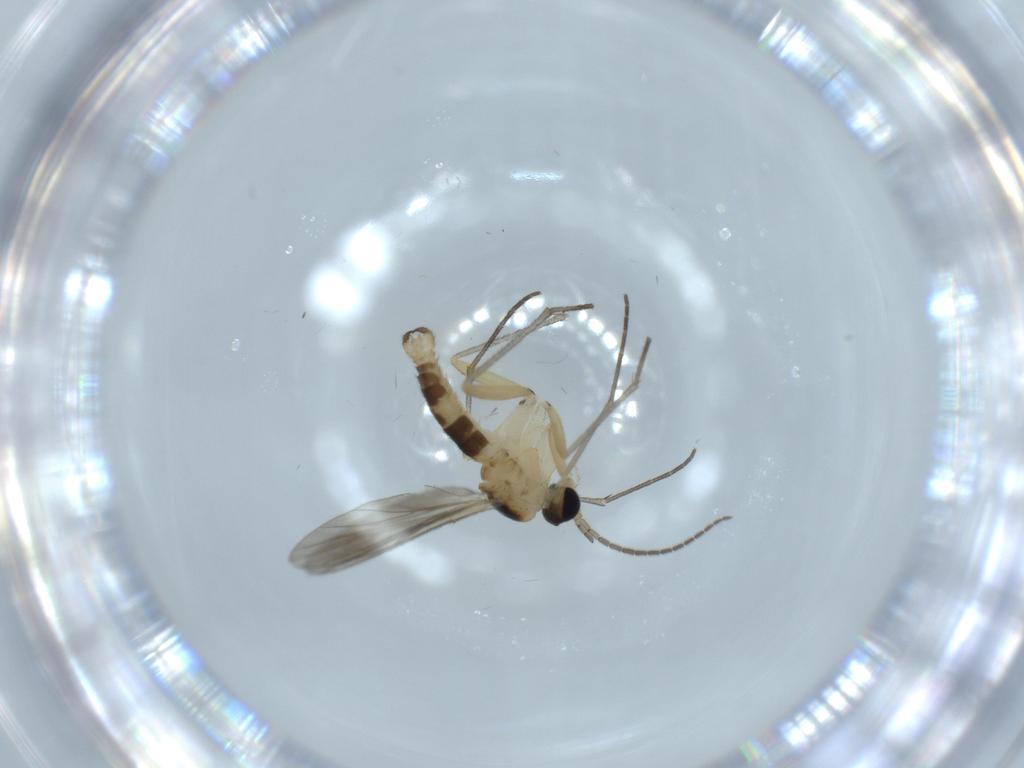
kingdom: Animalia
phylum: Arthropoda
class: Insecta
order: Diptera
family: Sciaridae
